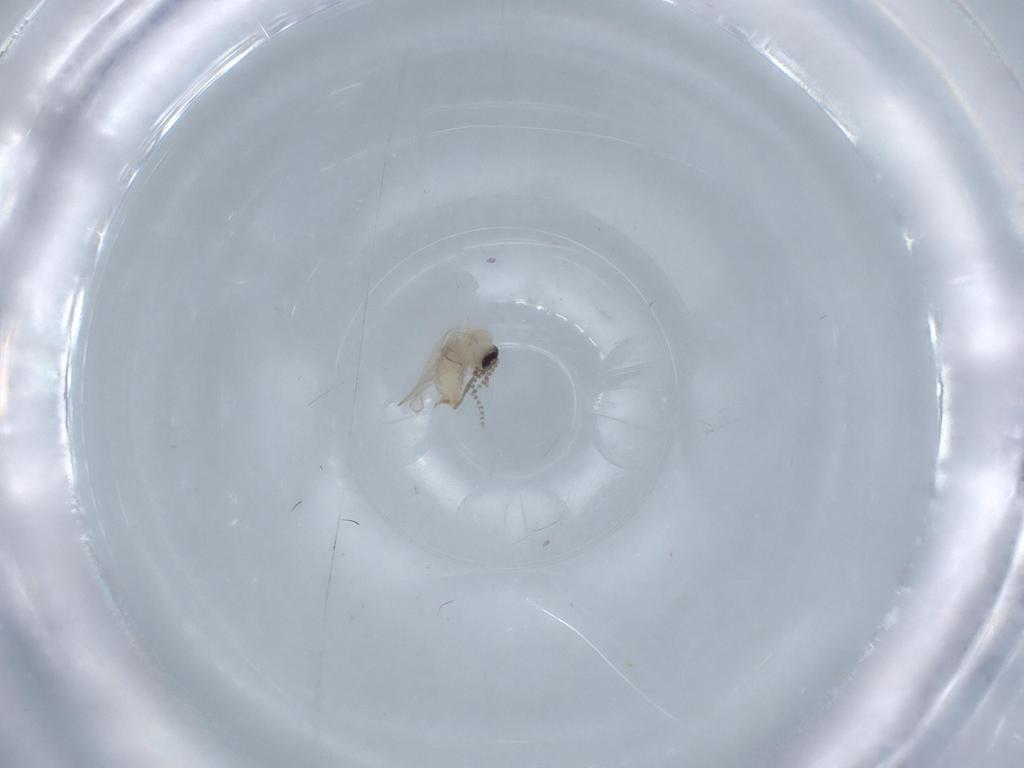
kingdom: Animalia
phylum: Arthropoda
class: Insecta
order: Diptera
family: Psychodidae
